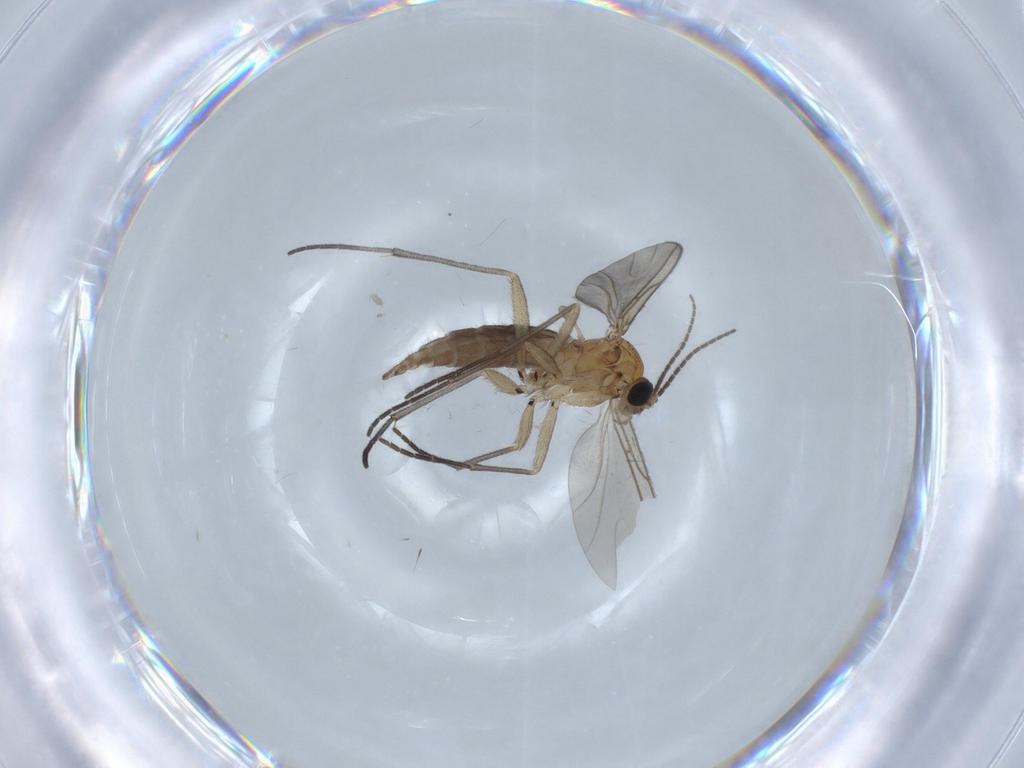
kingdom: Animalia
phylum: Arthropoda
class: Insecta
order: Diptera
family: Sciaridae
